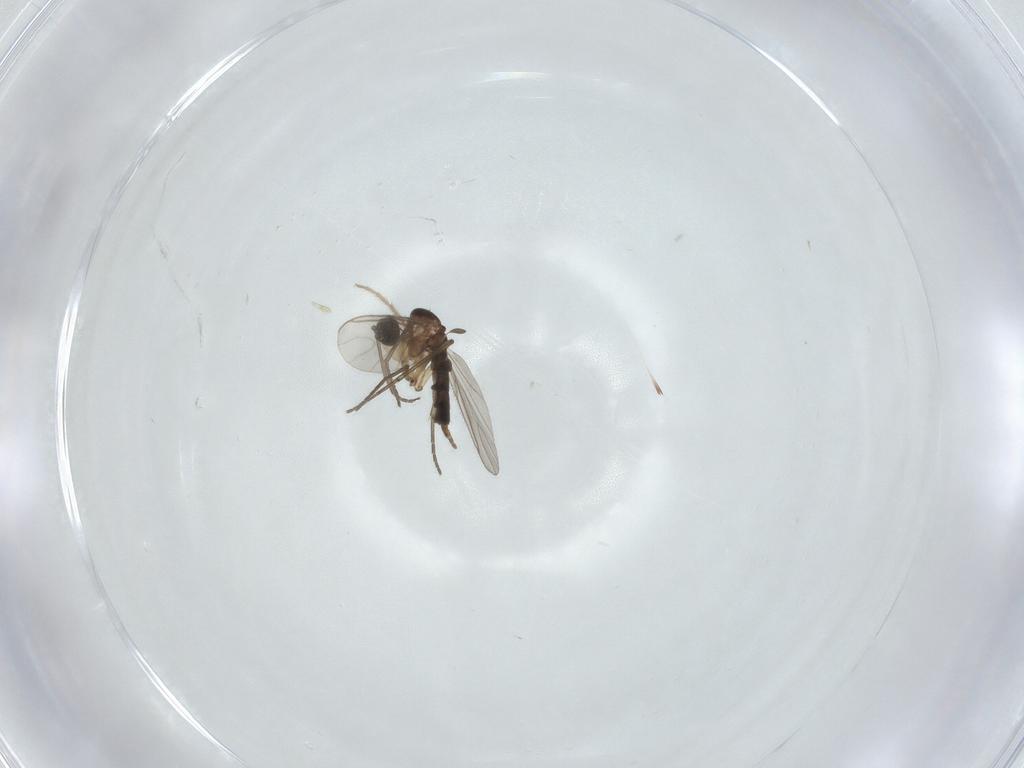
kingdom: Animalia
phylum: Arthropoda
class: Insecta
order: Diptera
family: Sciaridae
